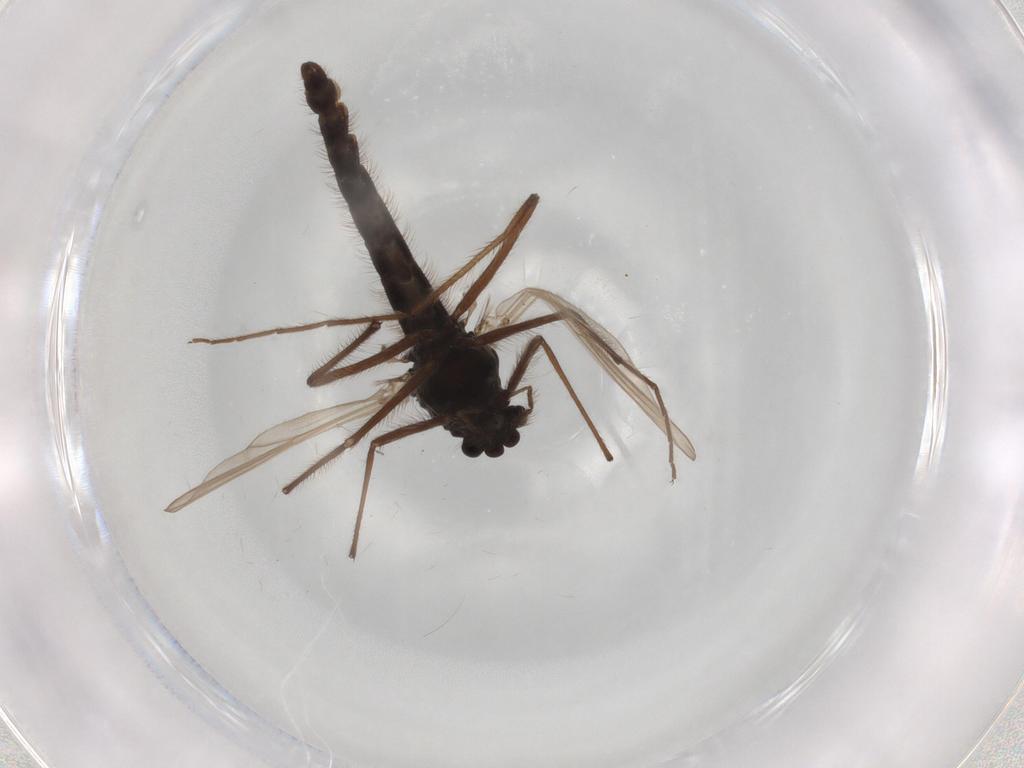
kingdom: Animalia
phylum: Arthropoda
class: Insecta
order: Diptera
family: Drosophilidae
